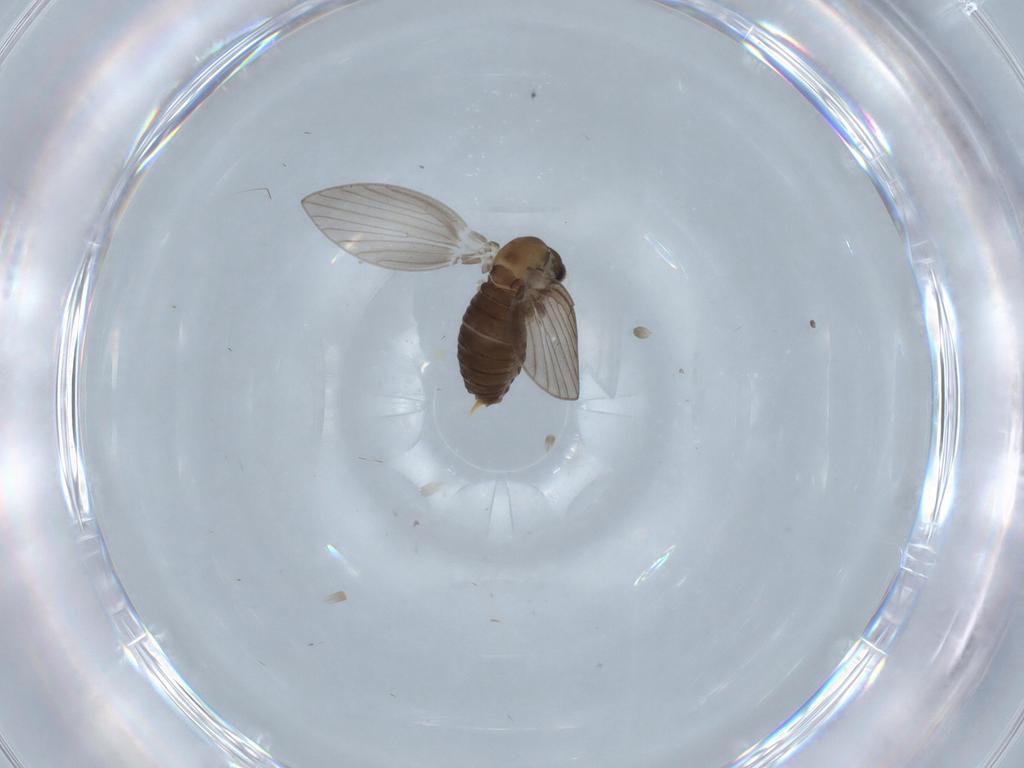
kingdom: Animalia
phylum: Arthropoda
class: Insecta
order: Diptera
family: Psychodidae
